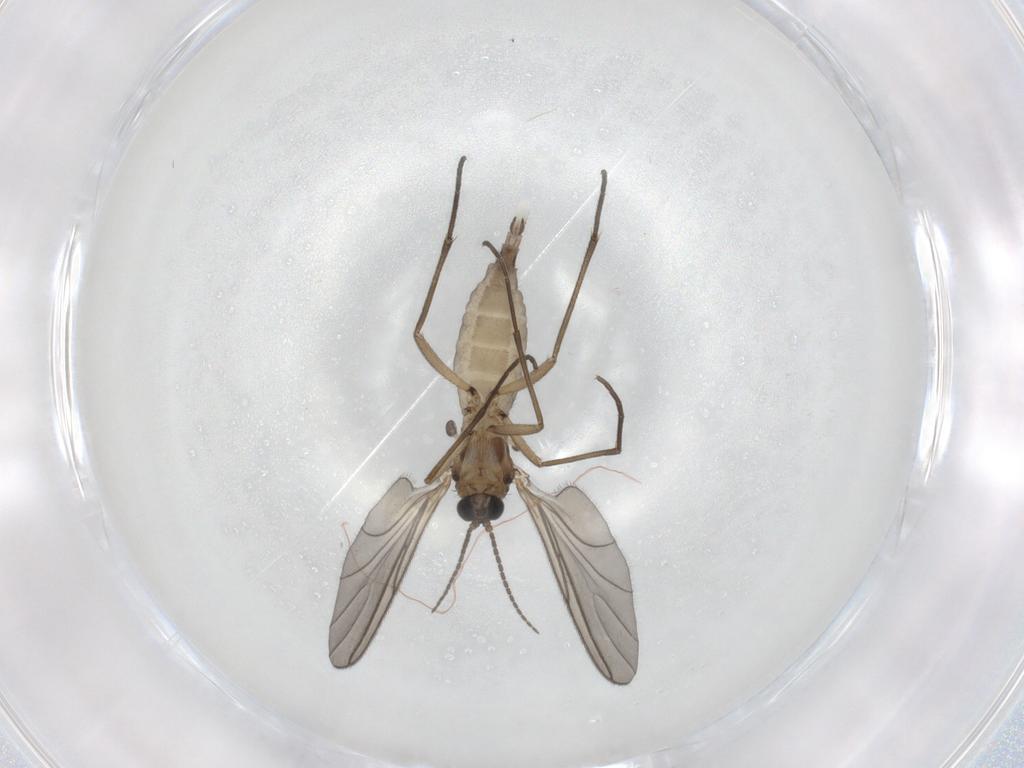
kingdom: Animalia
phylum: Arthropoda
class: Insecta
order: Diptera
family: Sciaridae
